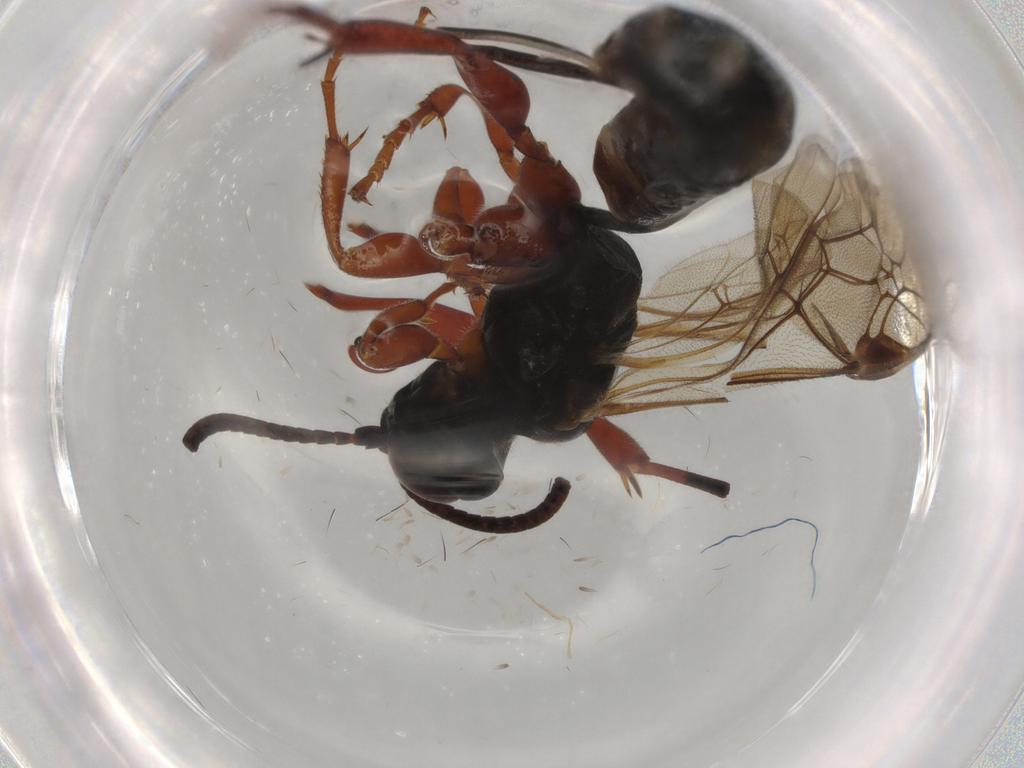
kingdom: Animalia
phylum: Arthropoda
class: Insecta
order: Hymenoptera
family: Ichneumonidae
